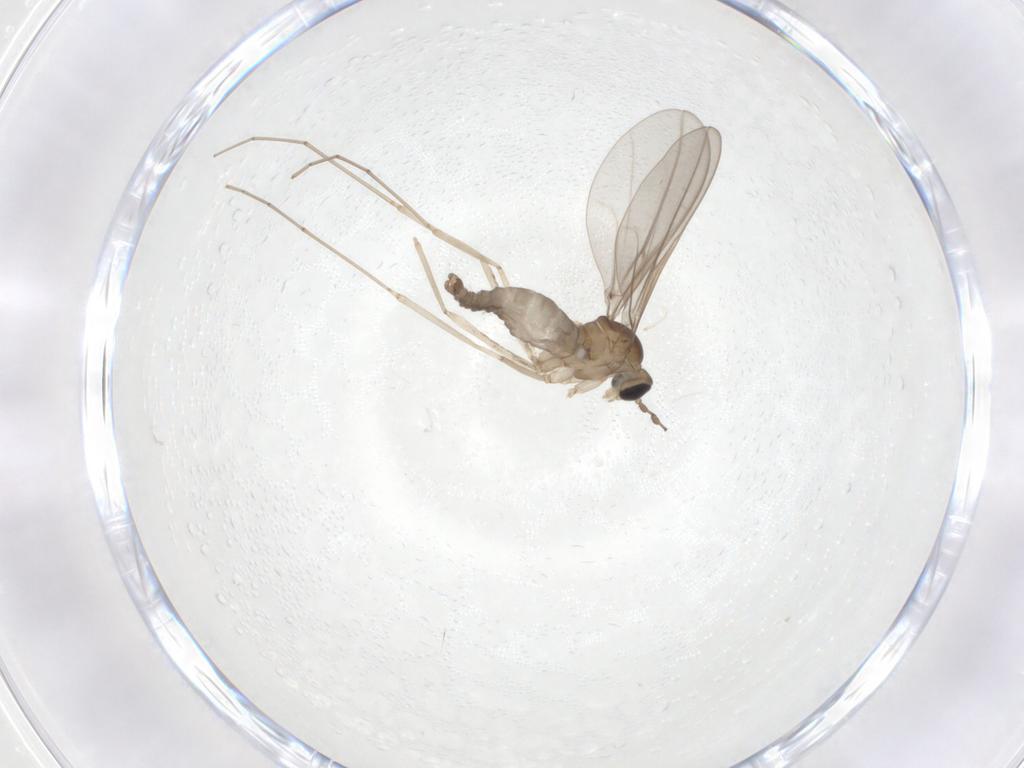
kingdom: Animalia
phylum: Arthropoda
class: Insecta
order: Diptera
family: Cecidomyiidae
